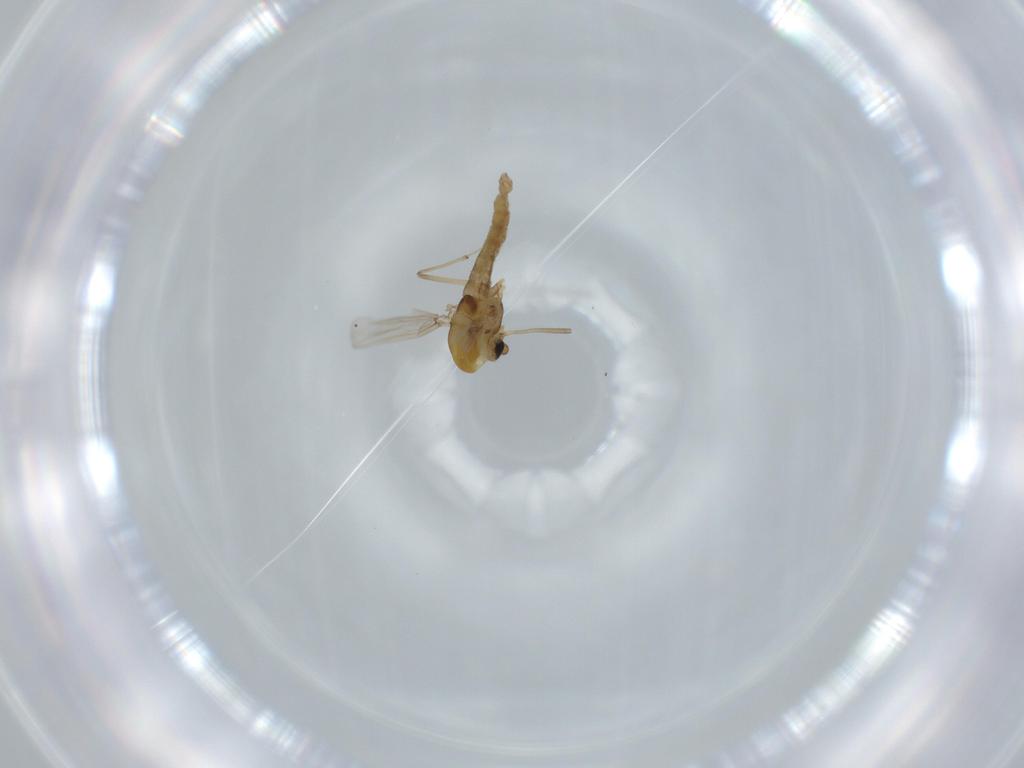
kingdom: Animalia
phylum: Arthropoda
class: Insecta
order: Diptera
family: Chironomidae
